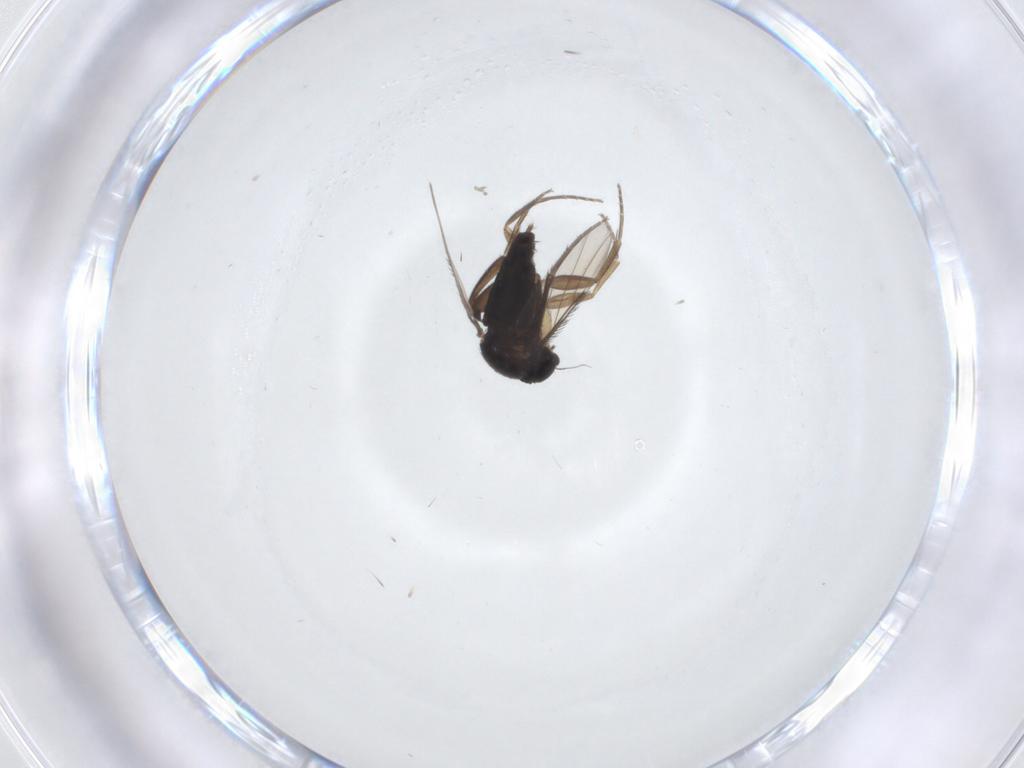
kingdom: Animalia
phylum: Arthropoda
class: Insecta
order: Diptera
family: Phoridae
